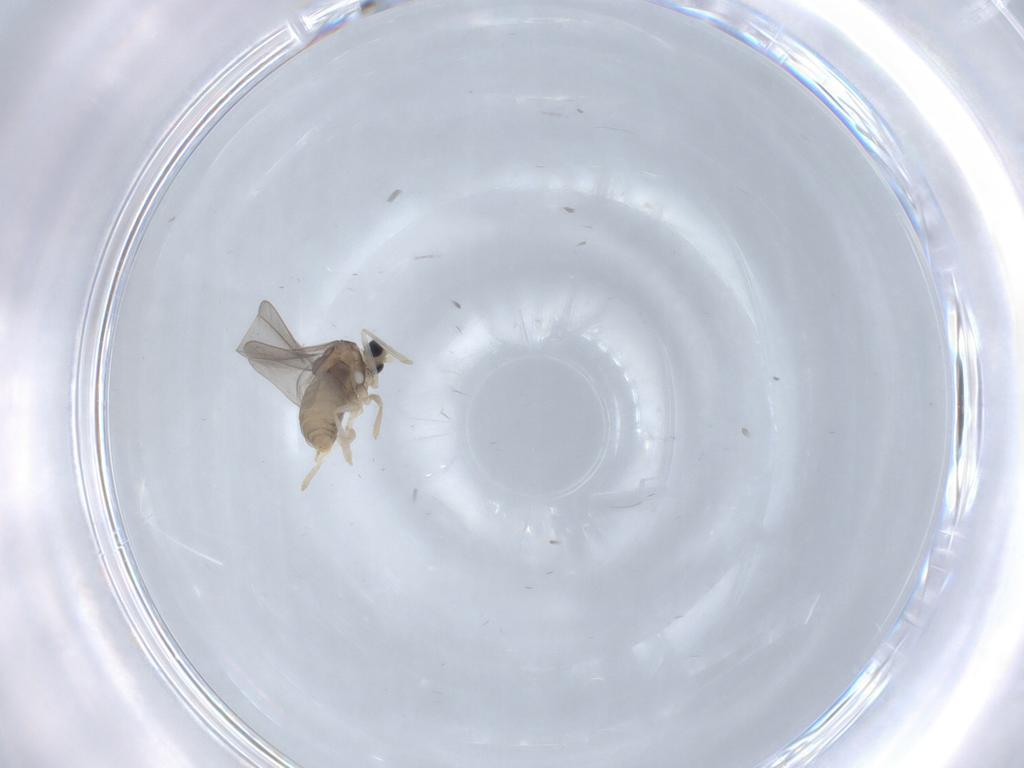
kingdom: Animalia
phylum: Arthropoda
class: Insecta
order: Diptera
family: Cecidomyiidae
